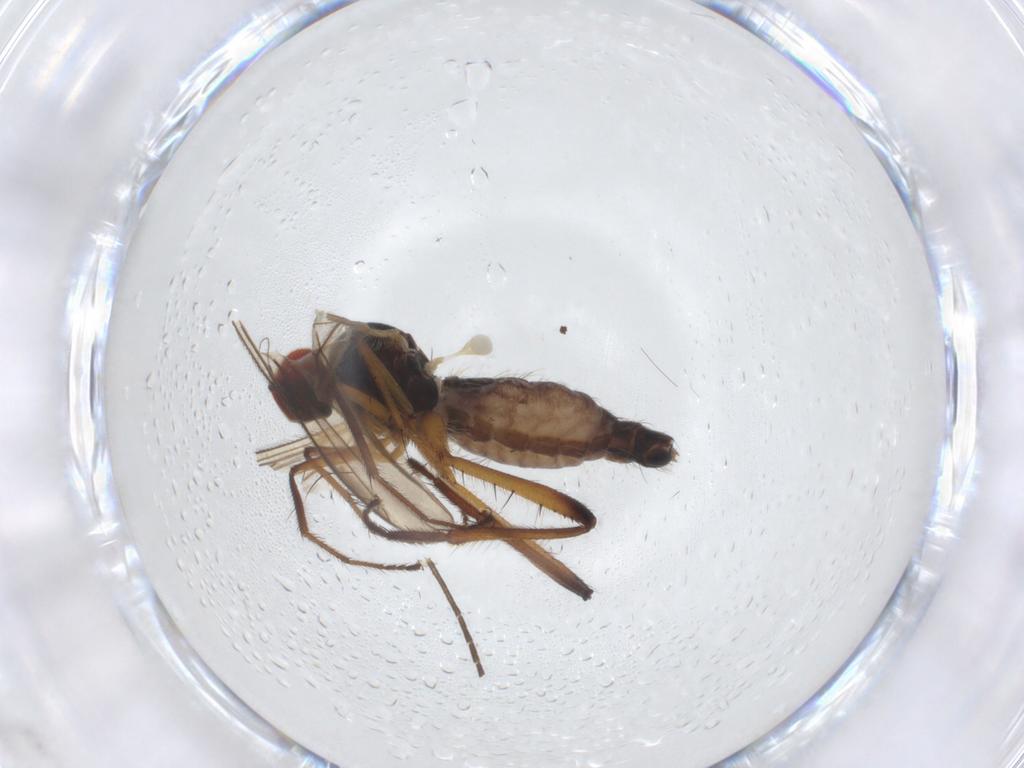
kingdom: Animalia
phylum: Arthropoda
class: Insecta
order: Diptera
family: Hybotidae
